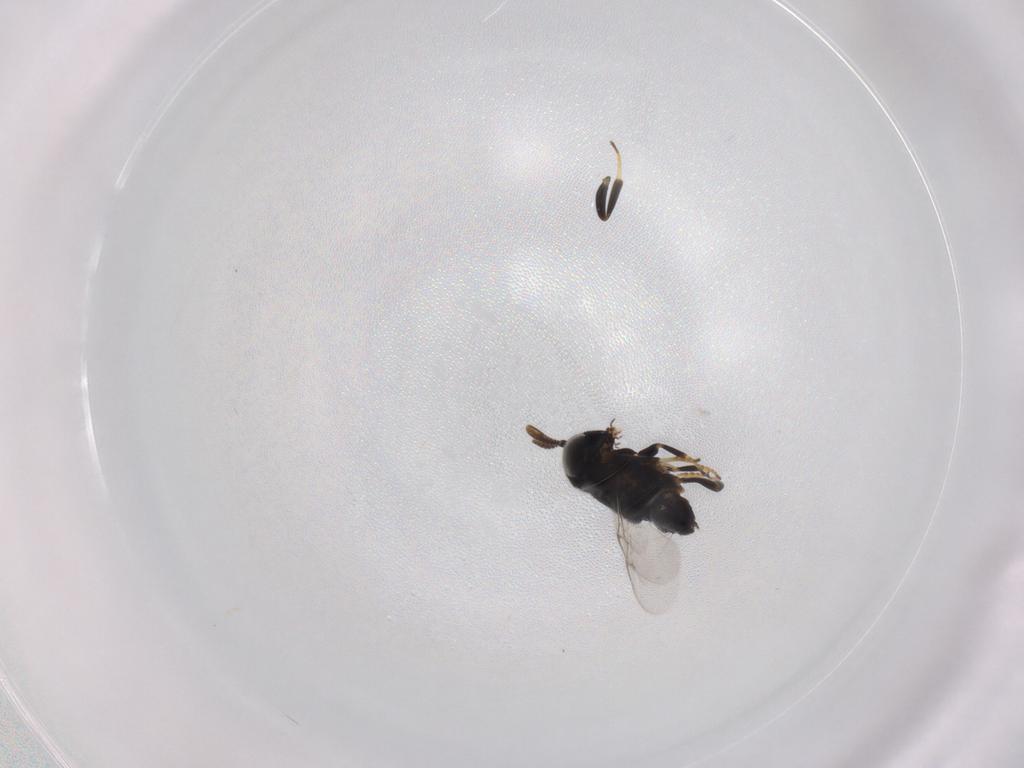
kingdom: Animalia
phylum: Arthropoda
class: Insecta
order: Hymenoptera
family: Encyrtidae
